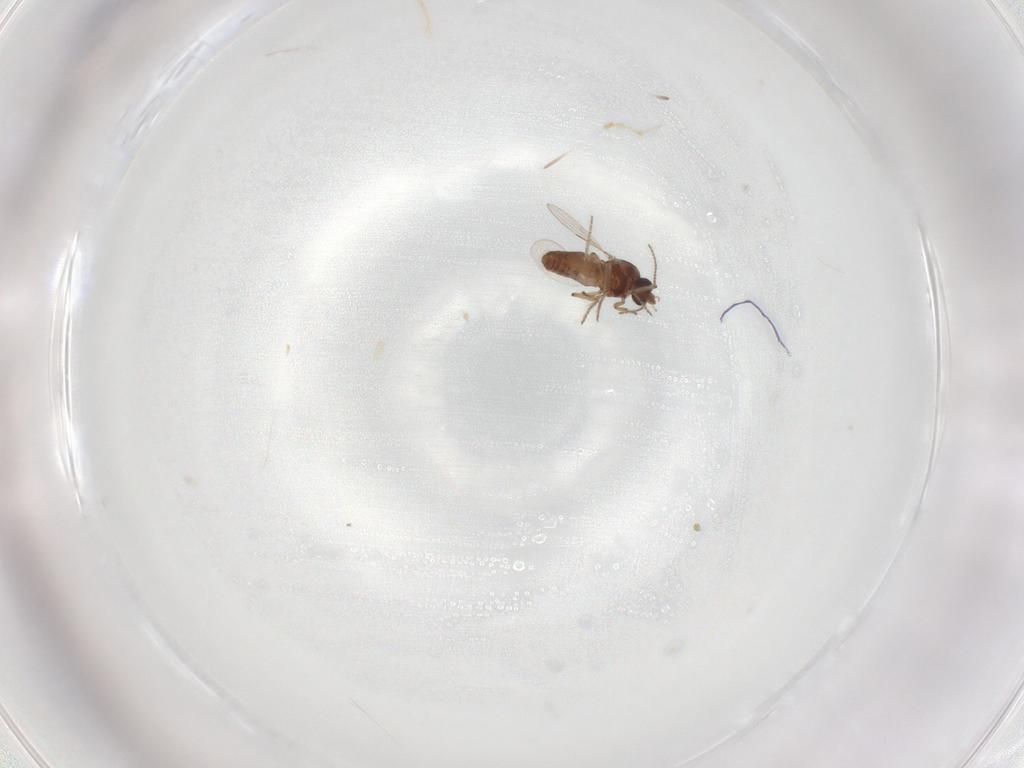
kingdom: Animalia
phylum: Arthropoda
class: Insecta
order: Diptera
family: Ceratopogonidae
